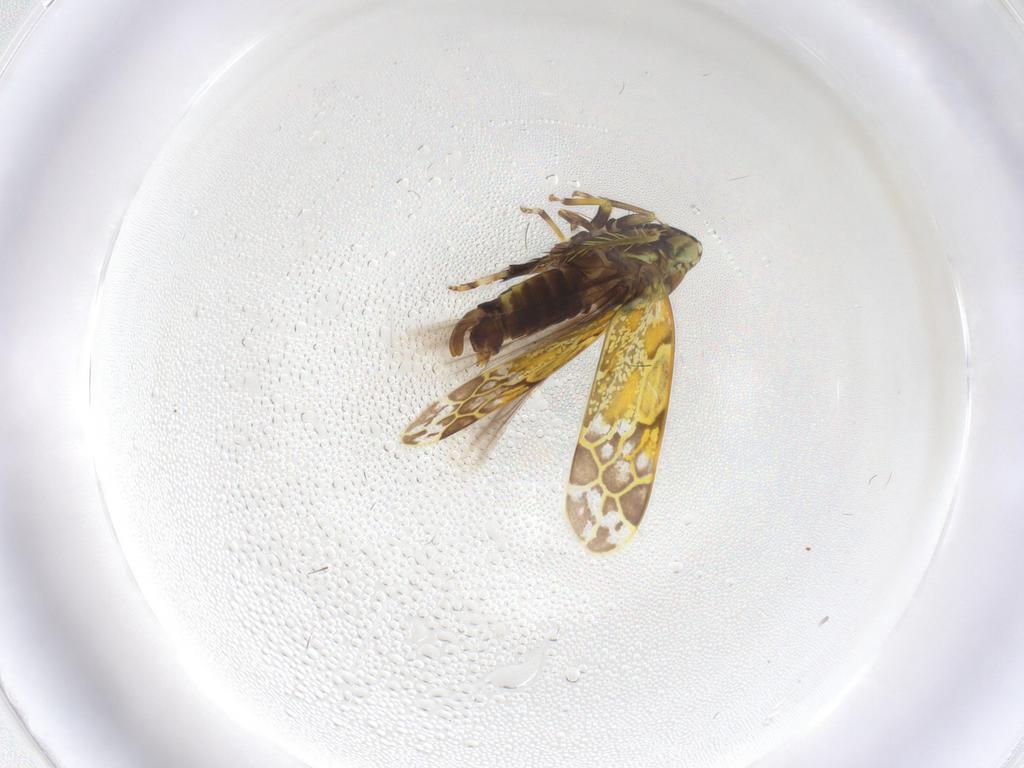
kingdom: Animalia
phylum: Arthropoda
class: Insecta
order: Hemiptera
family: Cicadellidae
